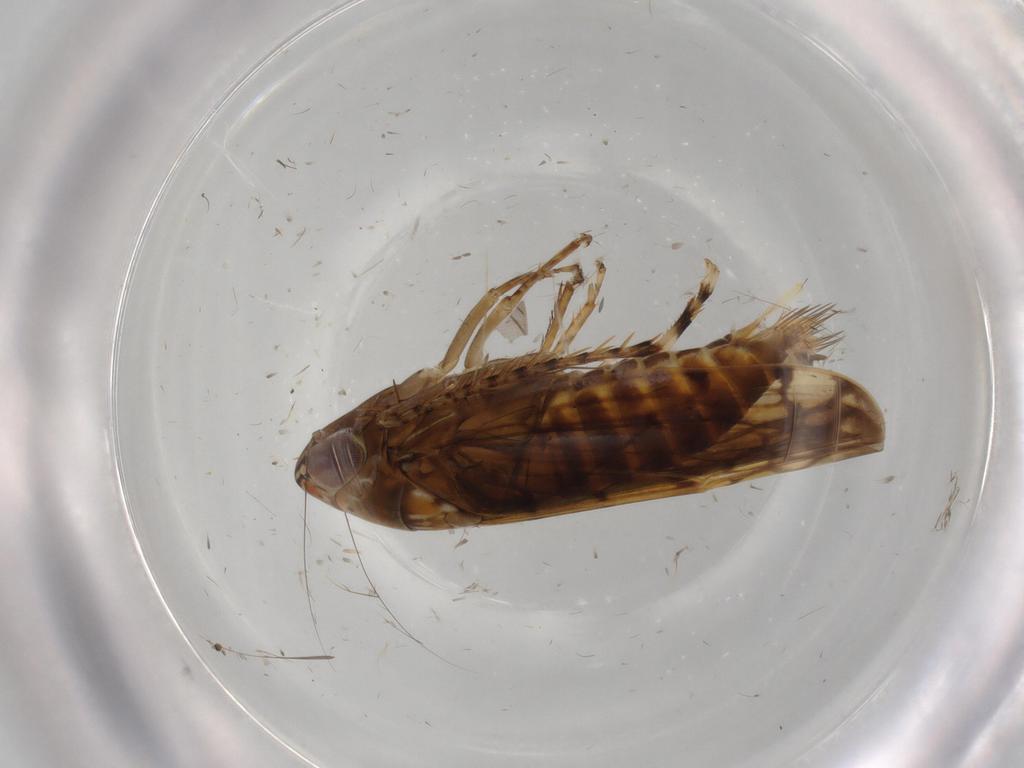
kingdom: Animalia
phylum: Arthropoda
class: Insecta
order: Hemiptera
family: Cicadellidae
